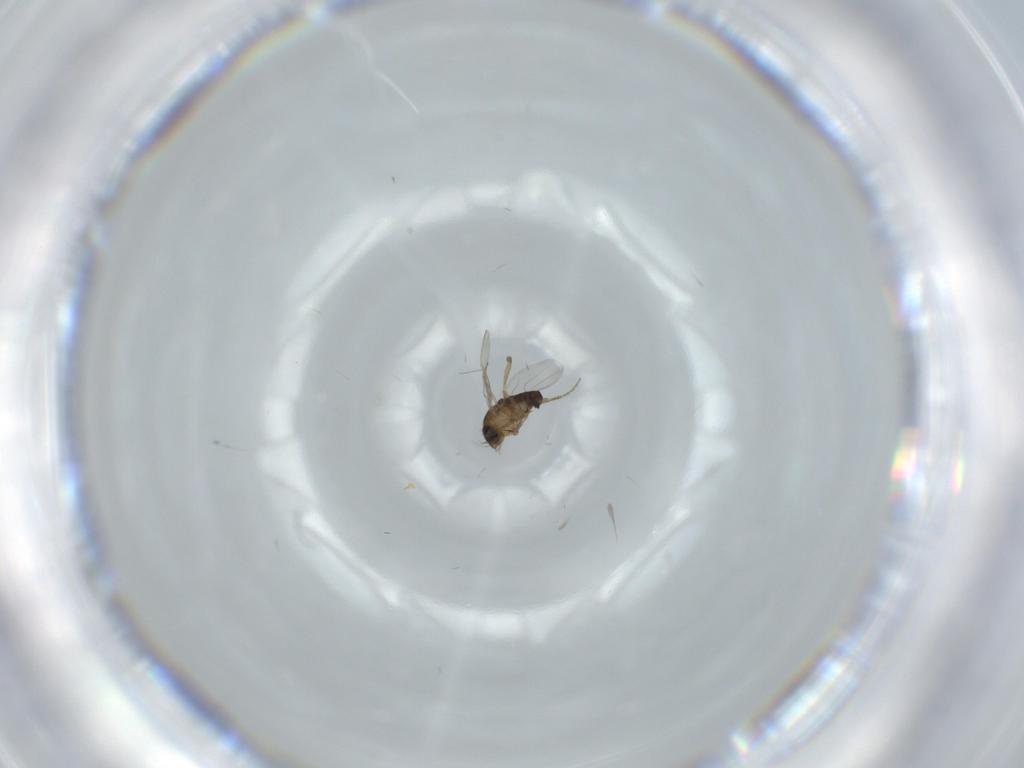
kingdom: Animalia
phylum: Arthropoda
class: Insecta
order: Diptera
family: Phoridae
